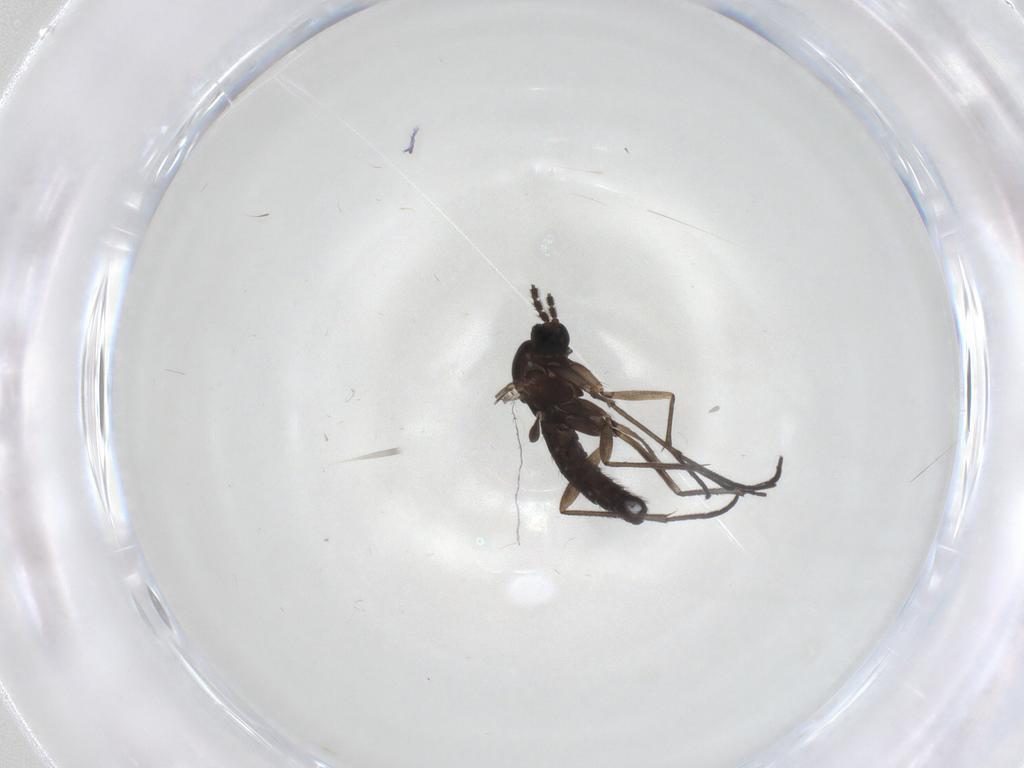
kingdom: Animalia
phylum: Arthropoda
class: Insecta
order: Diptera
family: Sciaridae
